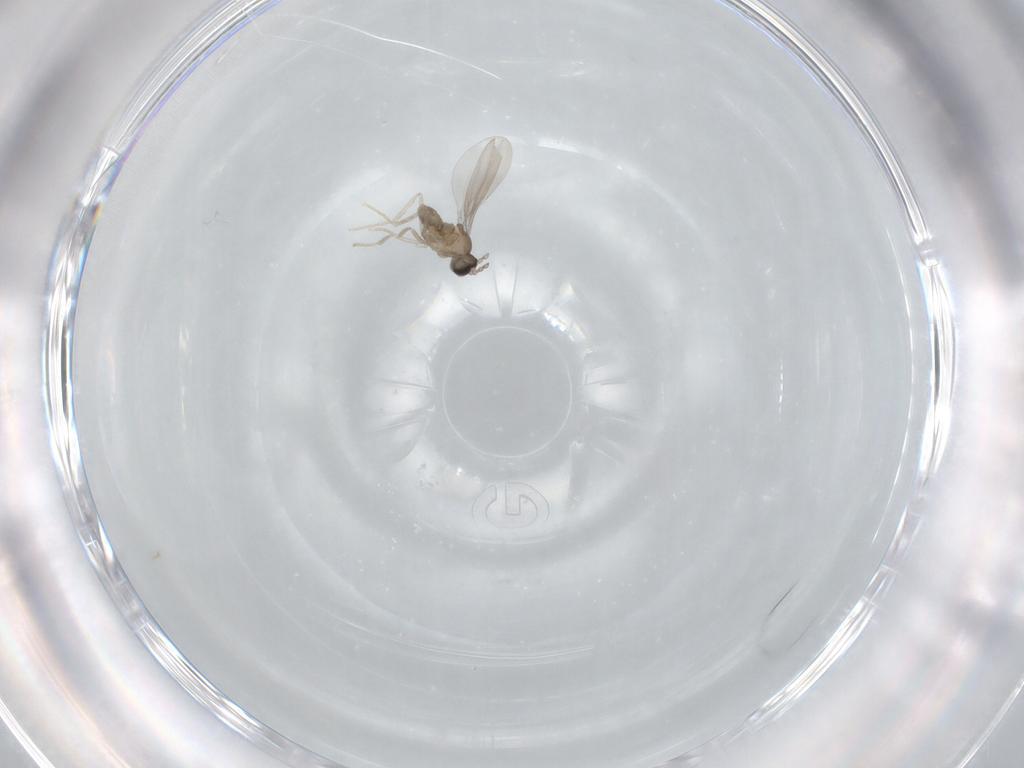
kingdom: Animalia
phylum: Arthropoda
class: Insecta
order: Diptera
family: Cecidomyiidae
